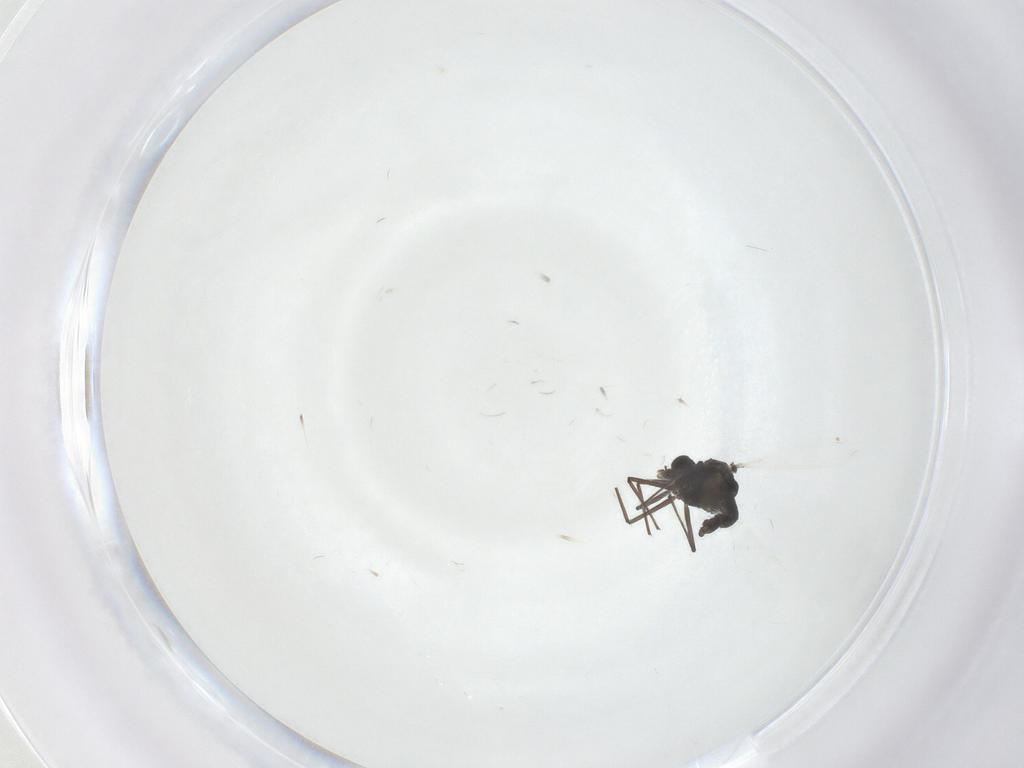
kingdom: Animalia
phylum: Arthropoda
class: Insecta
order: Diptera
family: Chironomidae
